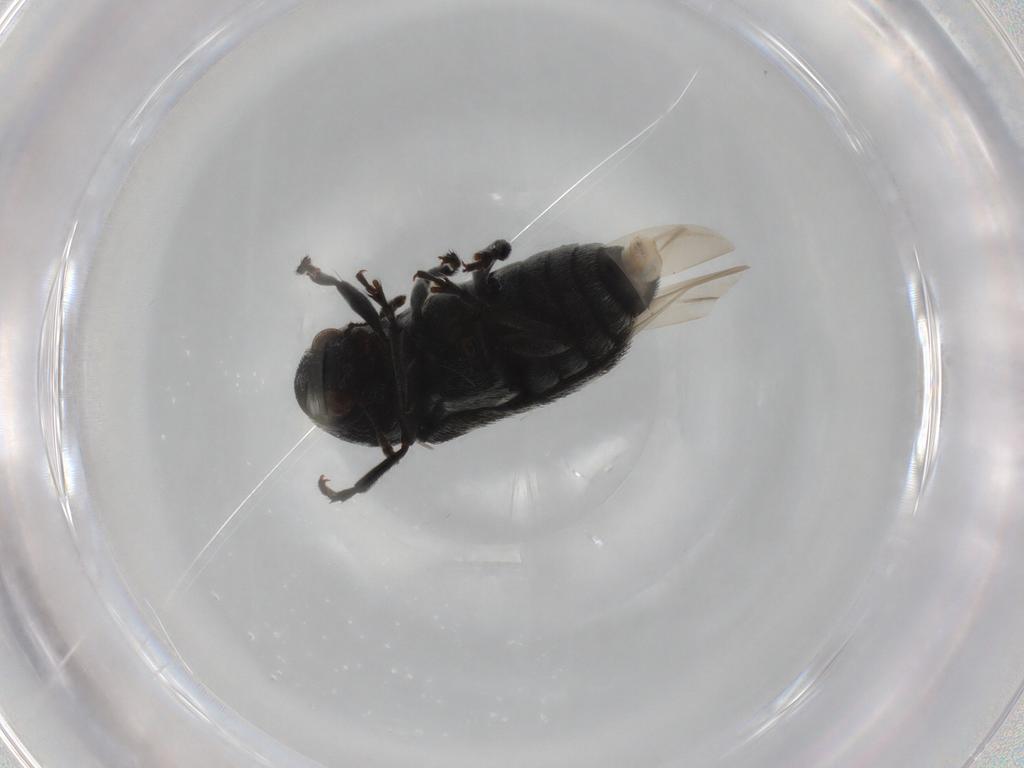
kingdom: Animalia
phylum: Arthropoda
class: Insecta
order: Coleoptera
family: Anthribidae
